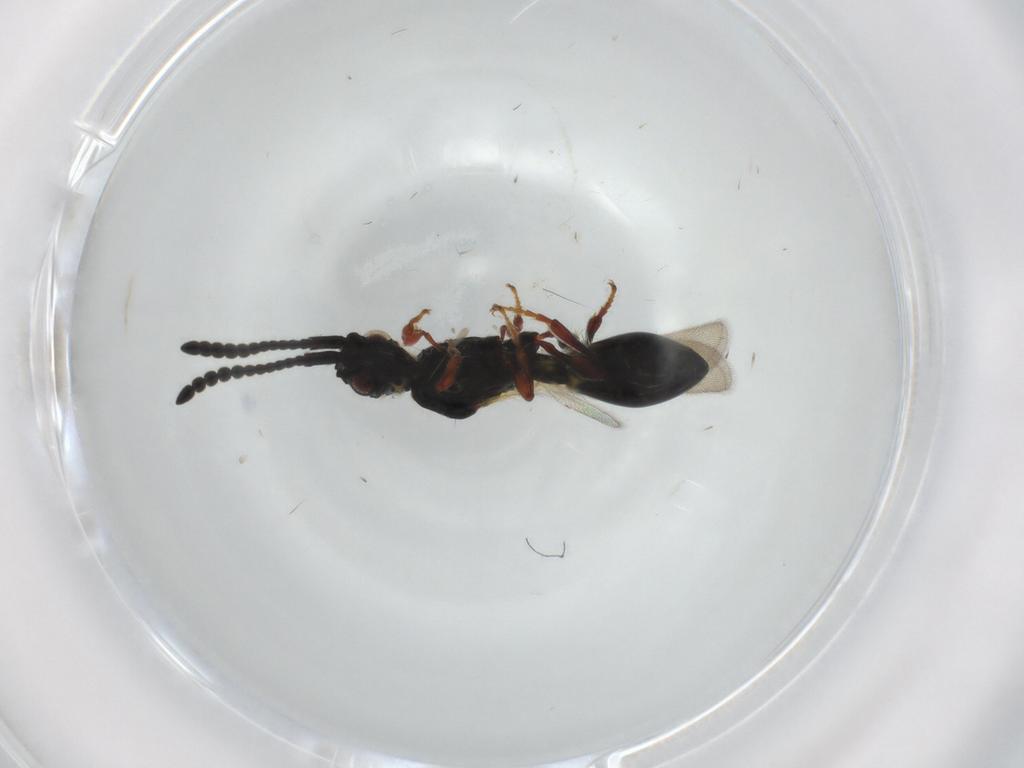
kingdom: Animalia
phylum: Arthropoda
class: Insecta
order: Hymenoptera
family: Diapriidae
